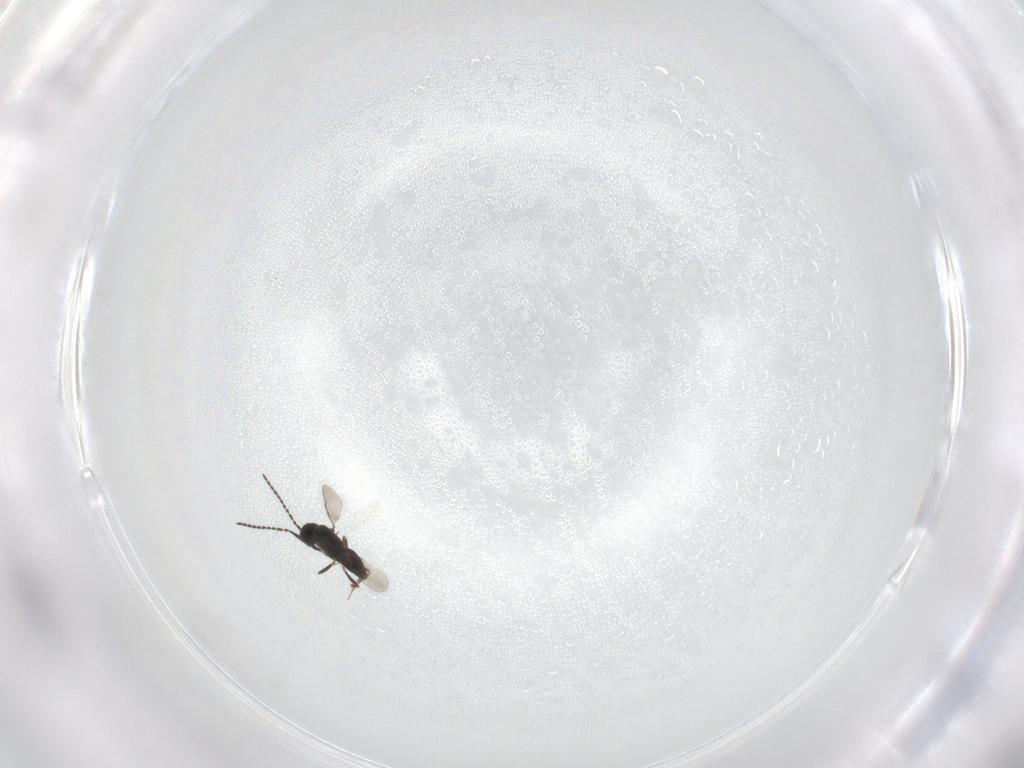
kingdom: Animalia
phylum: Arthropoda
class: Insecta
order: Hymenoptera
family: Ceraphronidae
